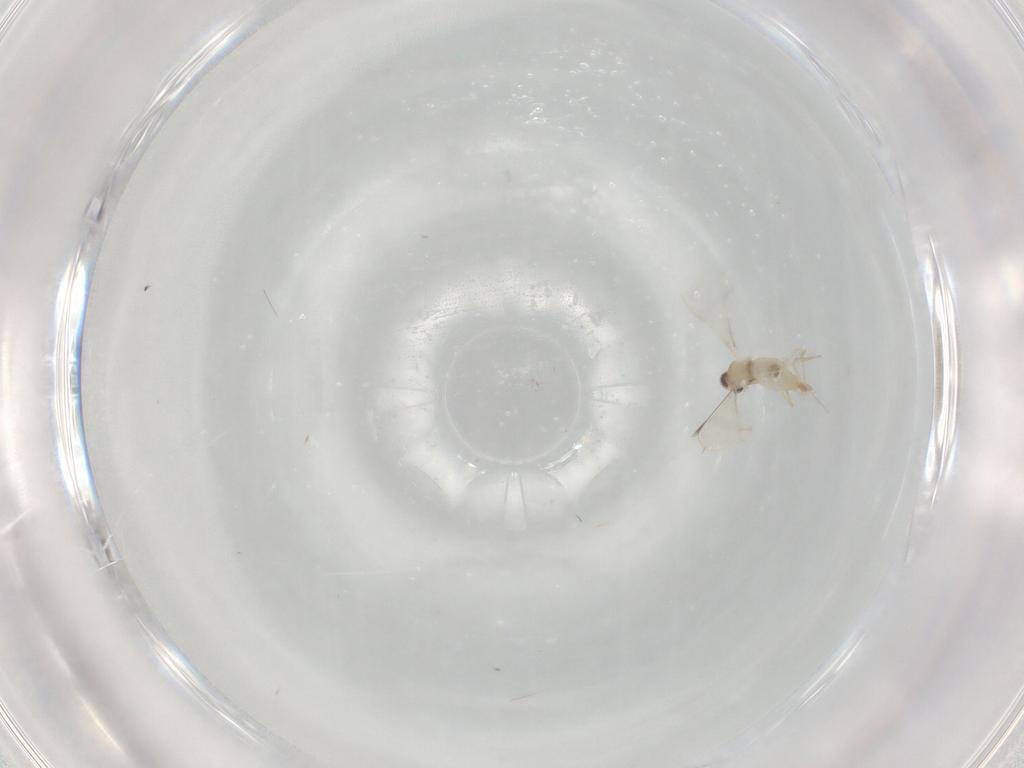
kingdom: Animalia
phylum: Arthropoda
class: Insecta
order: Diptera
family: Cecidomyiidae
